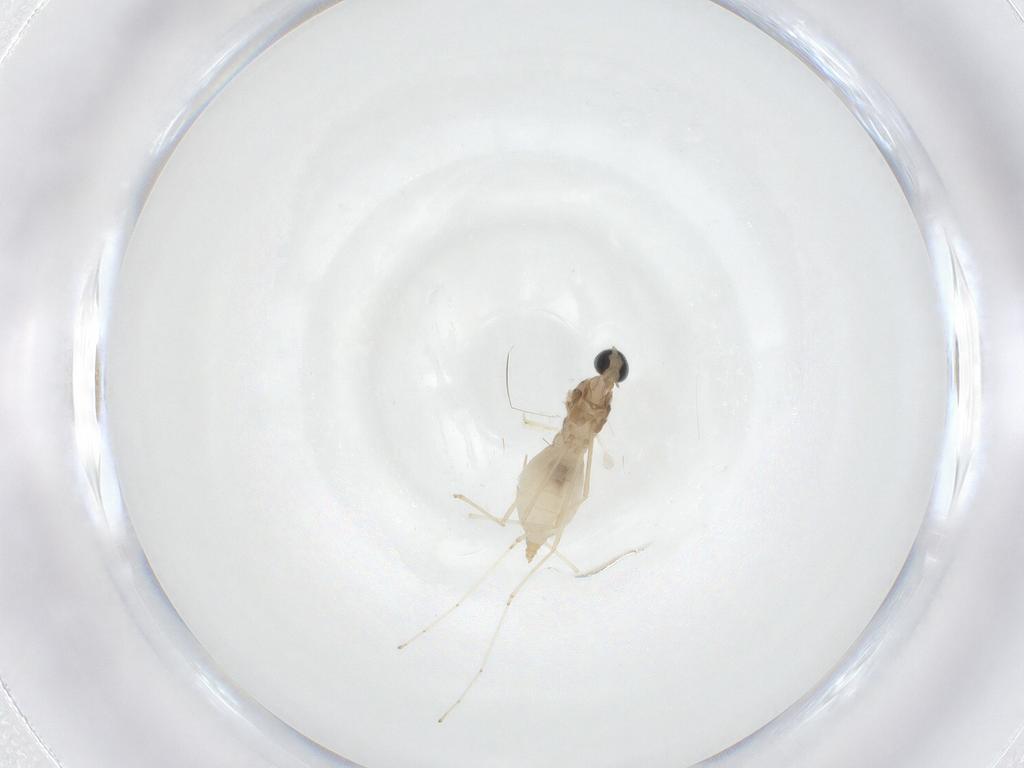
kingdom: Animalia
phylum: Arthropoda
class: Insecta
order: Diptera
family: Cecidomyiidae
